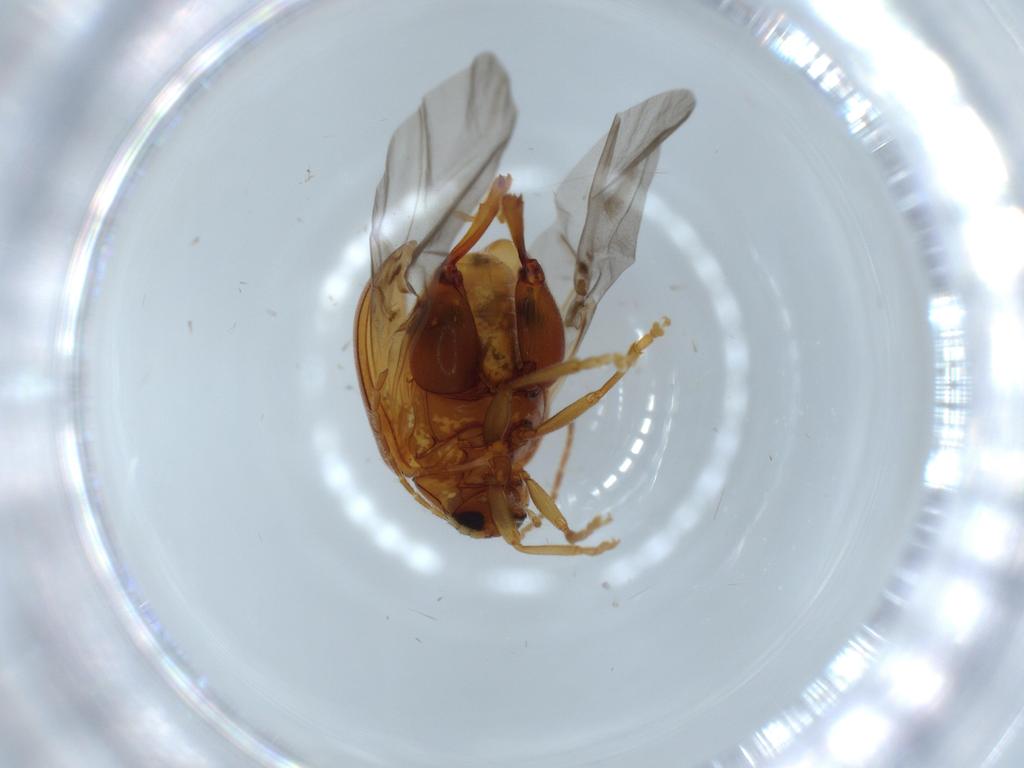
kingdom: Animalia
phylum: Arthropoda
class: Insecta
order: Coleoptera
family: Scraptiidae
